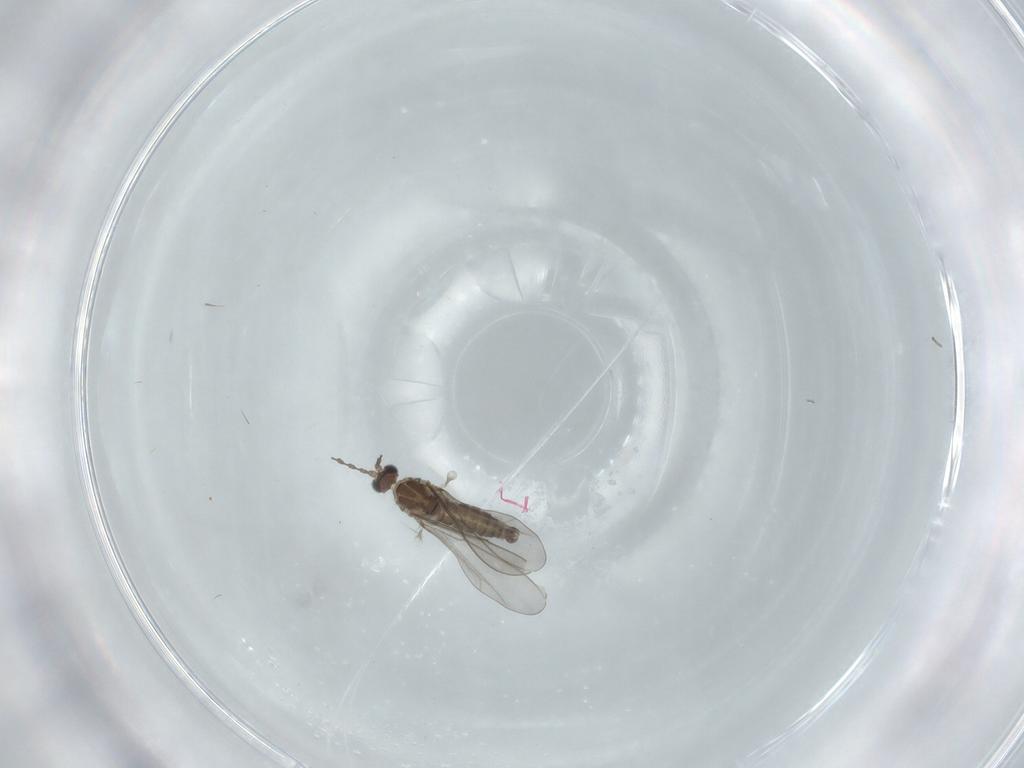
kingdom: Animalia
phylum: Arthropoda
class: Insecta
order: Diptera
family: Cecidomyiidae
